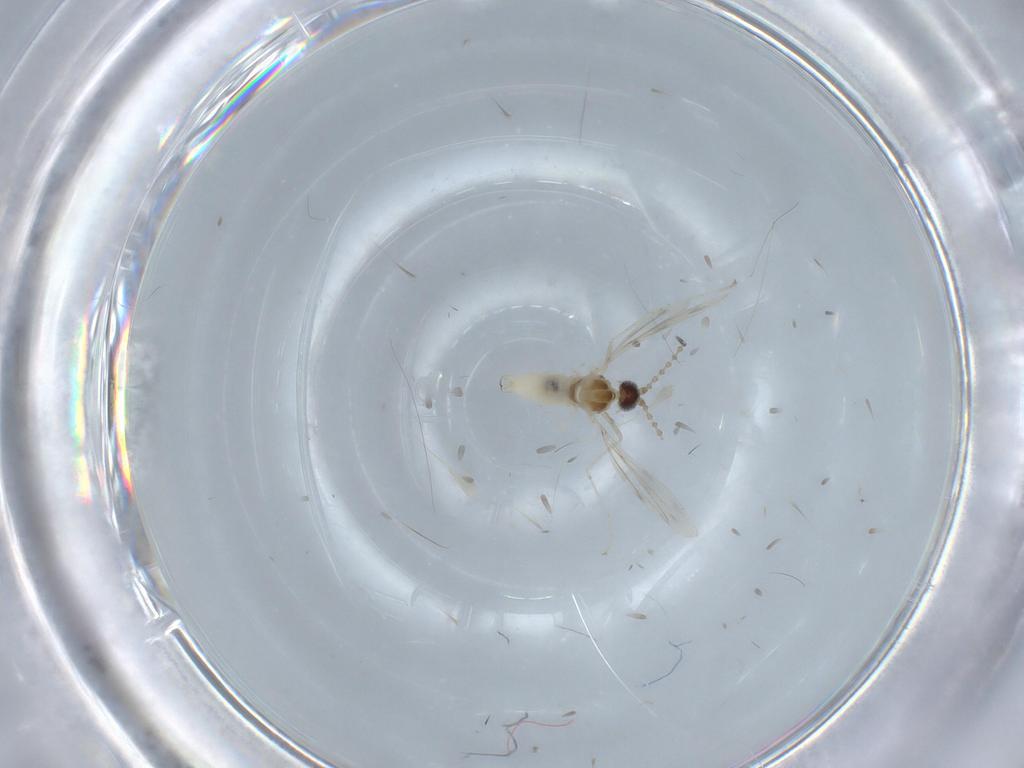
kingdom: Animalia
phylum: Arthropoda
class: Insecta
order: Diptera
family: Cecidomyiidae
